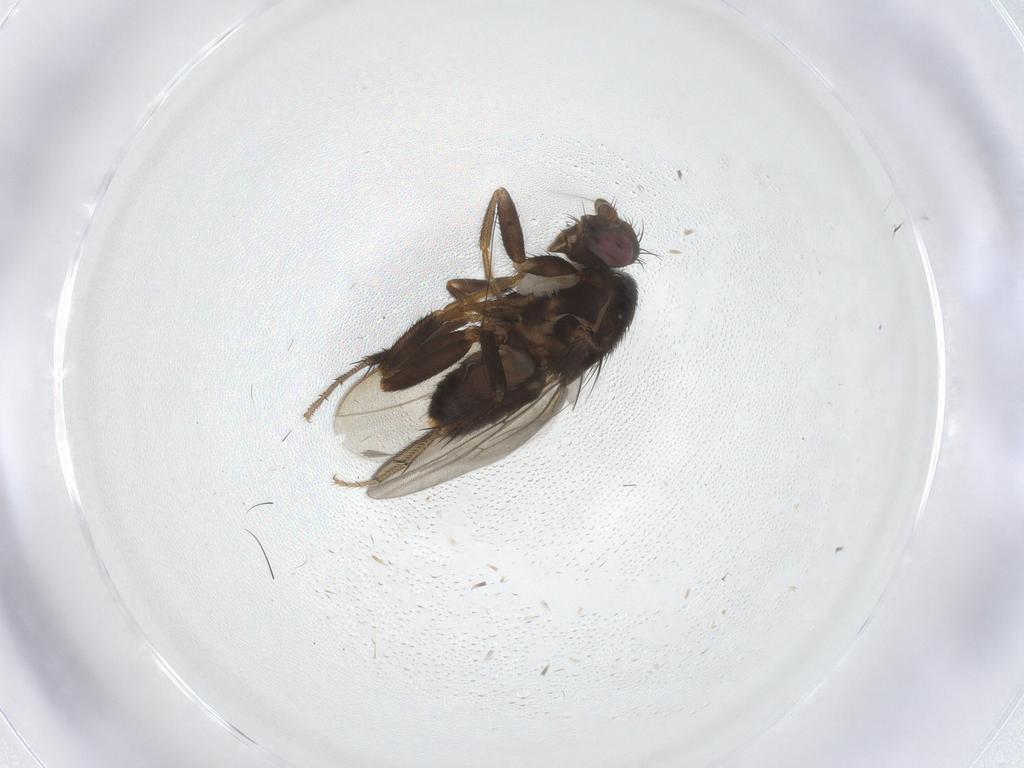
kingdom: Animalia
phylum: Arthropoda
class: Insecta
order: Diptera
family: Sphaeroceridae
